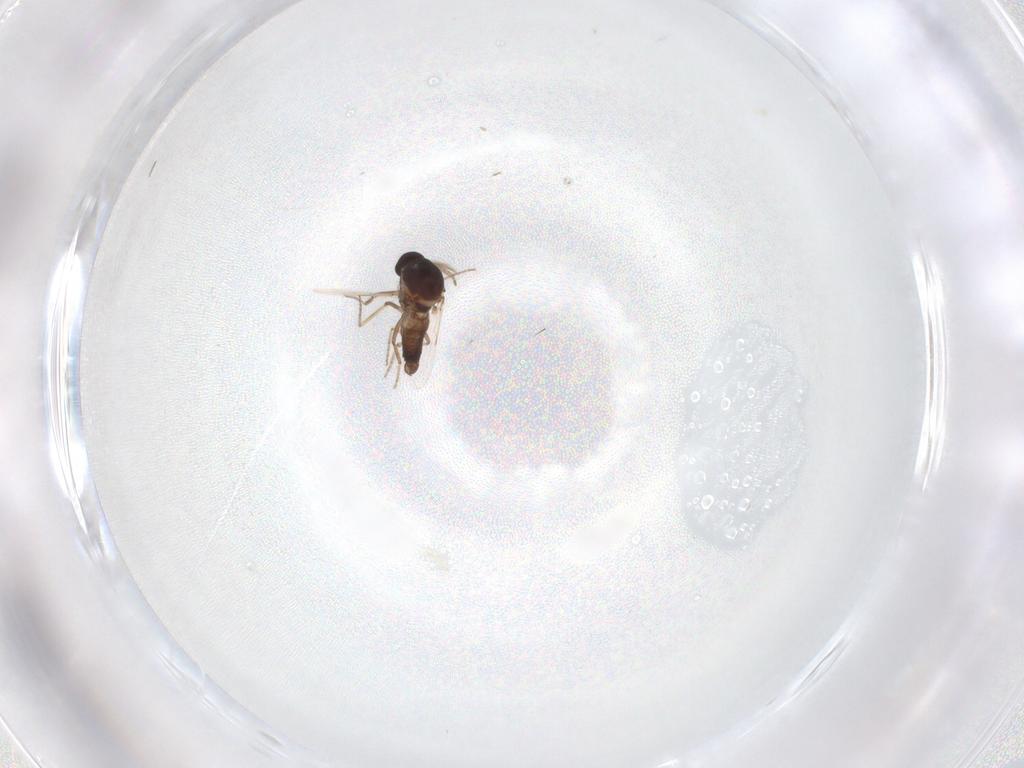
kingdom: Animalia
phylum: Arthropoda
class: Insecta
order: Diptera
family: Ceratopogonidae
